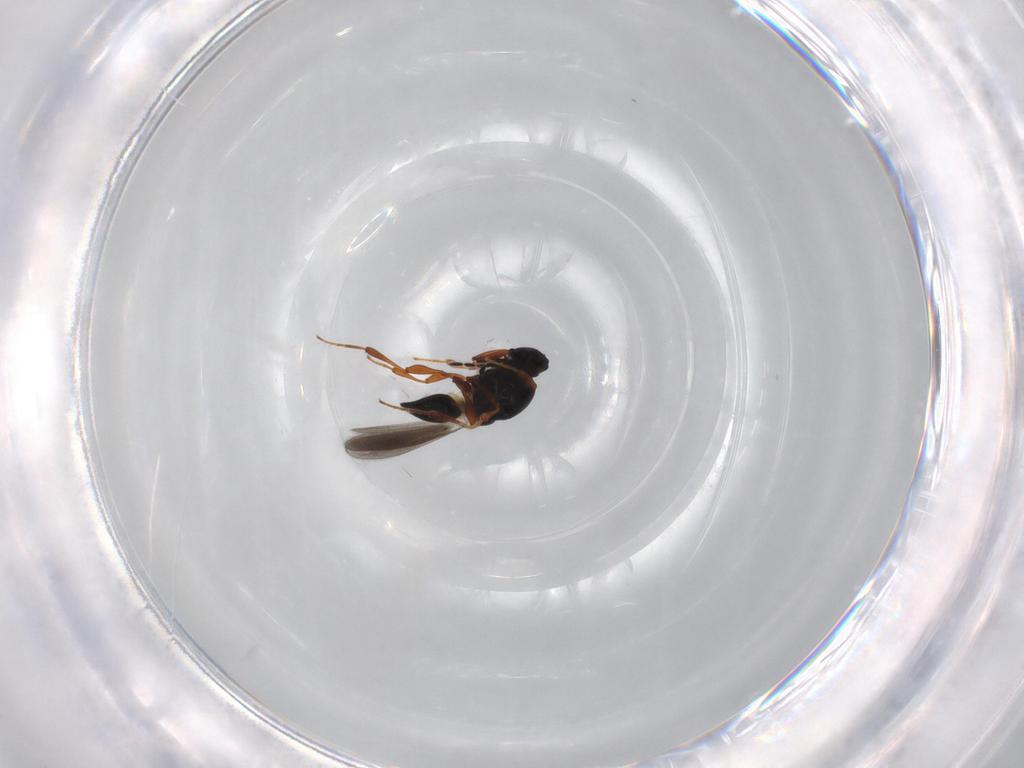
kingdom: Animalia
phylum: Arthropoda
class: Insecta
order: Hymenoptera
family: Platygastridae
